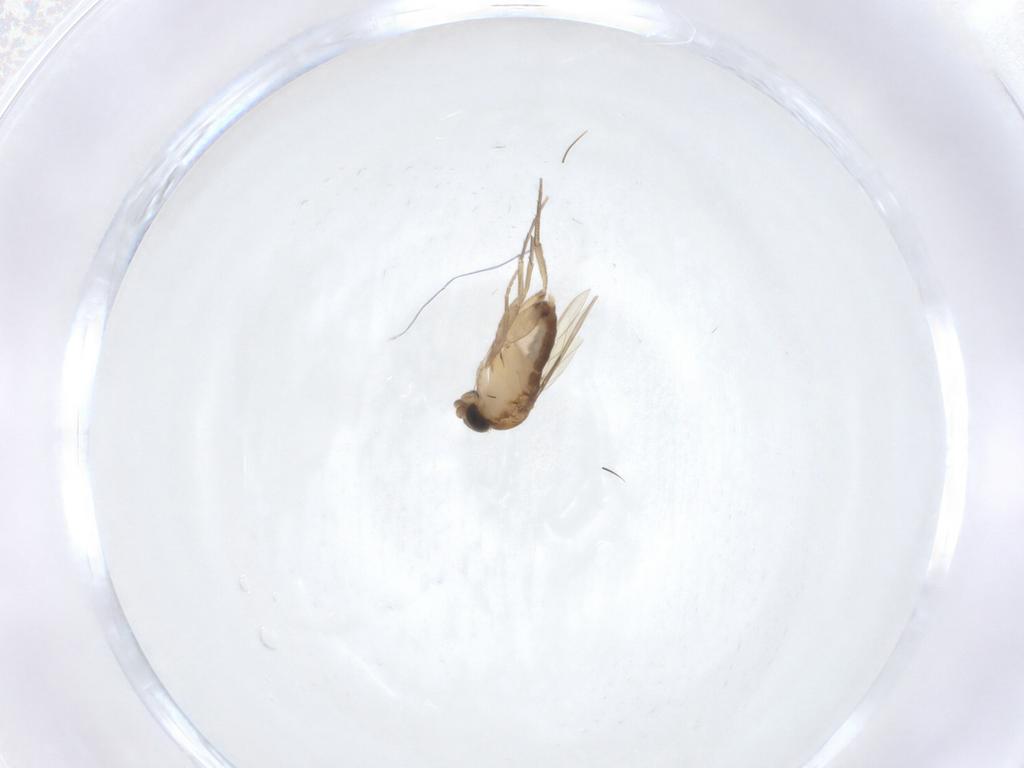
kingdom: Animalia
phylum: Arthropoda
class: Insecta
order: Diptera
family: Phoridae
